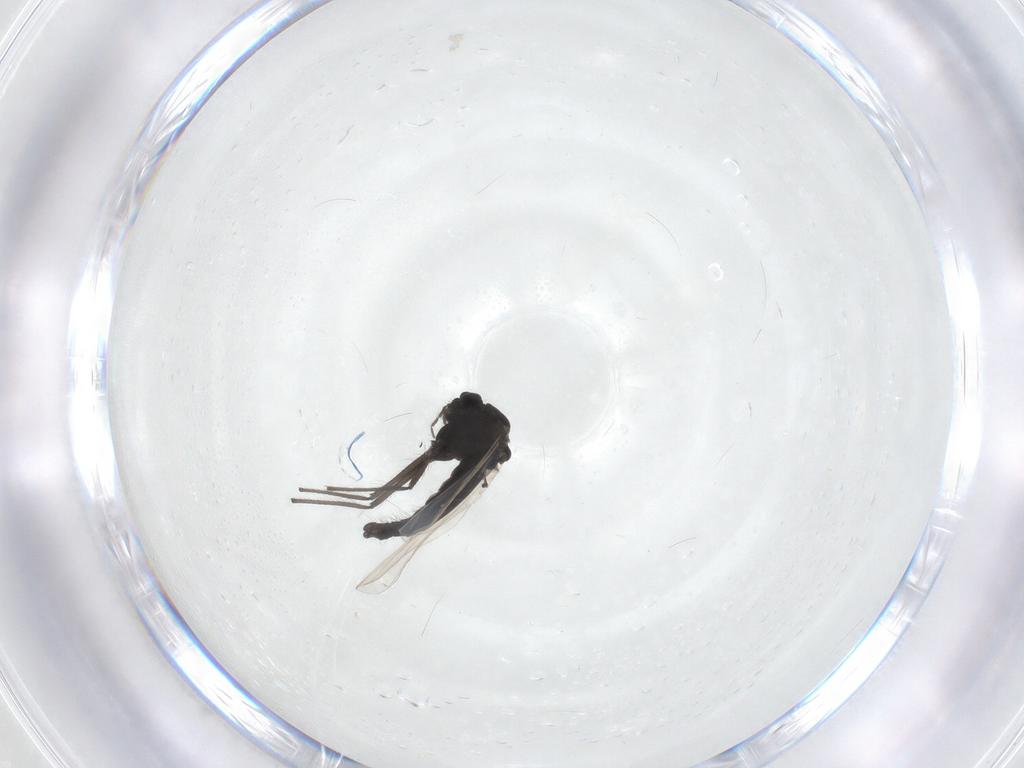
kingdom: Animalia
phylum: Arthropoda
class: Insecta
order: Diptera
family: Chironomidae
